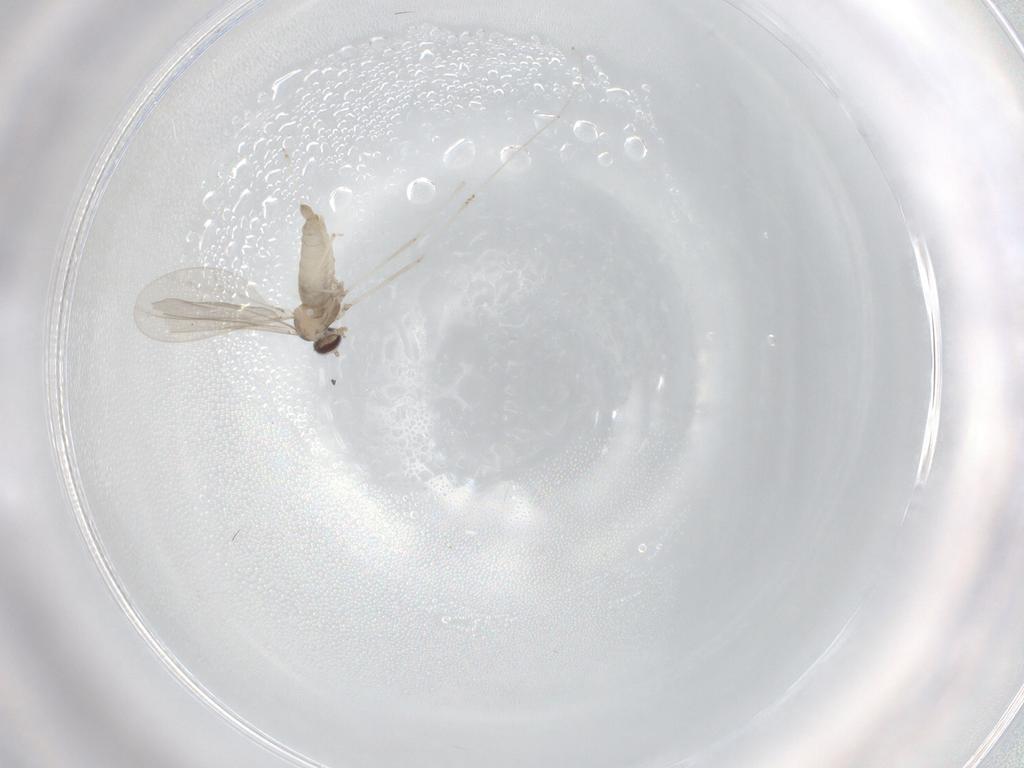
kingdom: Animalia
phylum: Arthropoda
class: Insecta
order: Diptera
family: Cecidomyiidae
